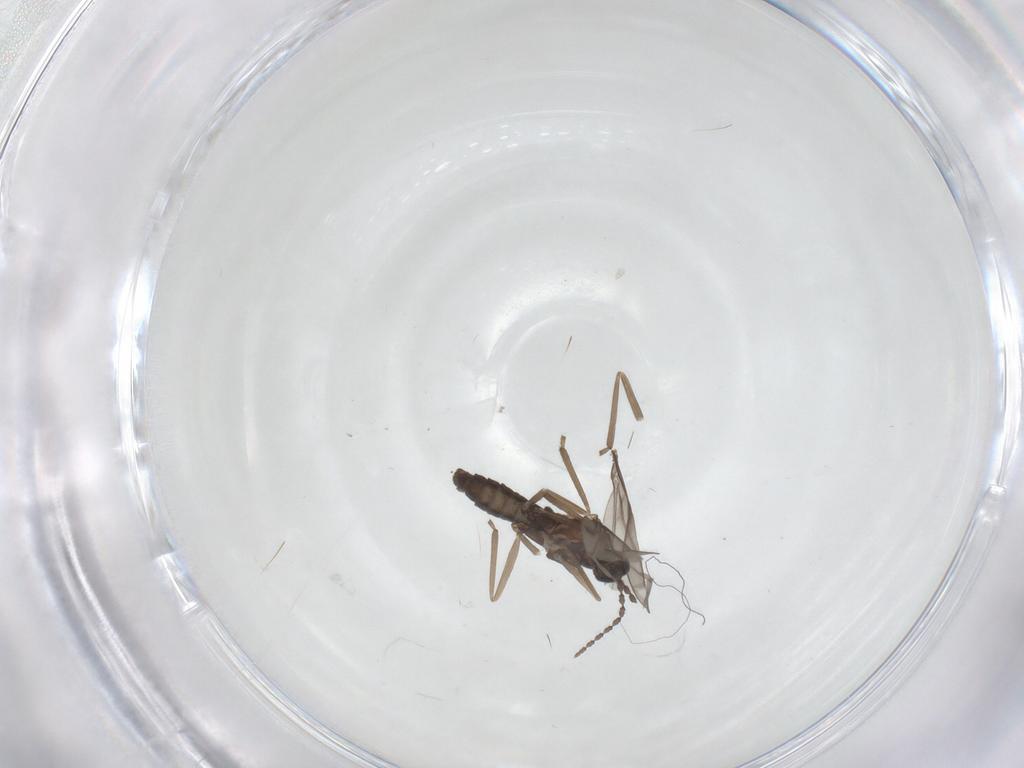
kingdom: Animalia
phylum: Arthropoda
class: Insecta
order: Diptera
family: Cecidomyiidae
